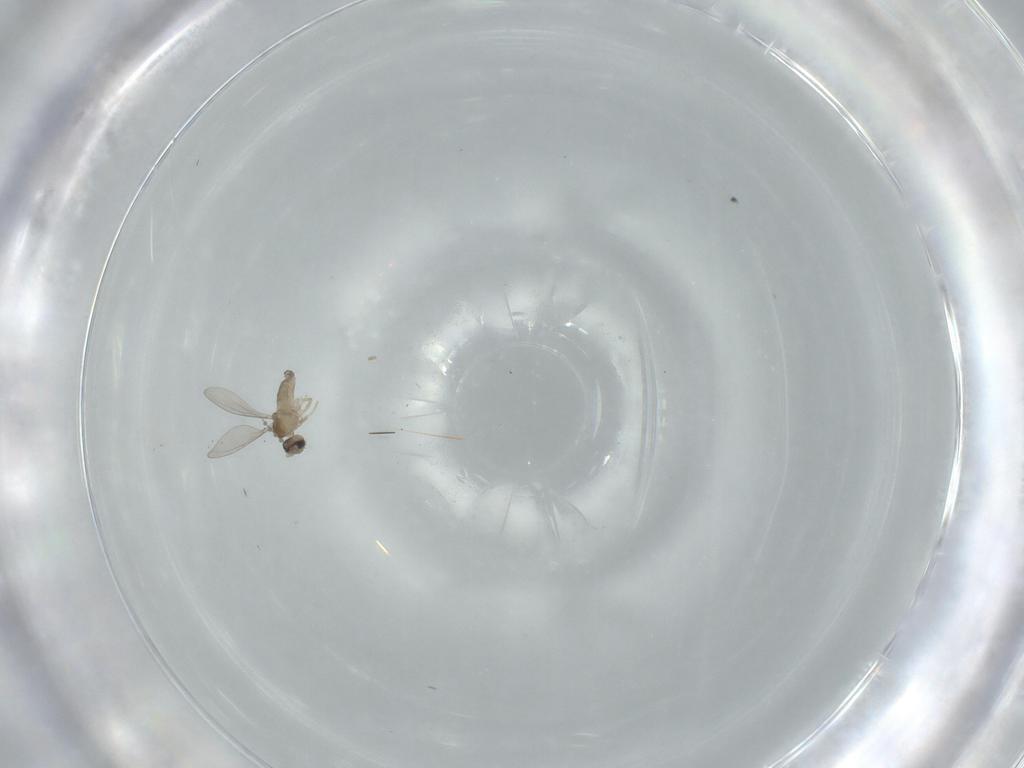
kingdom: Animalia
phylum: Arthropoda
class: Insecta
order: Diptera
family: Cecidomyiidae
